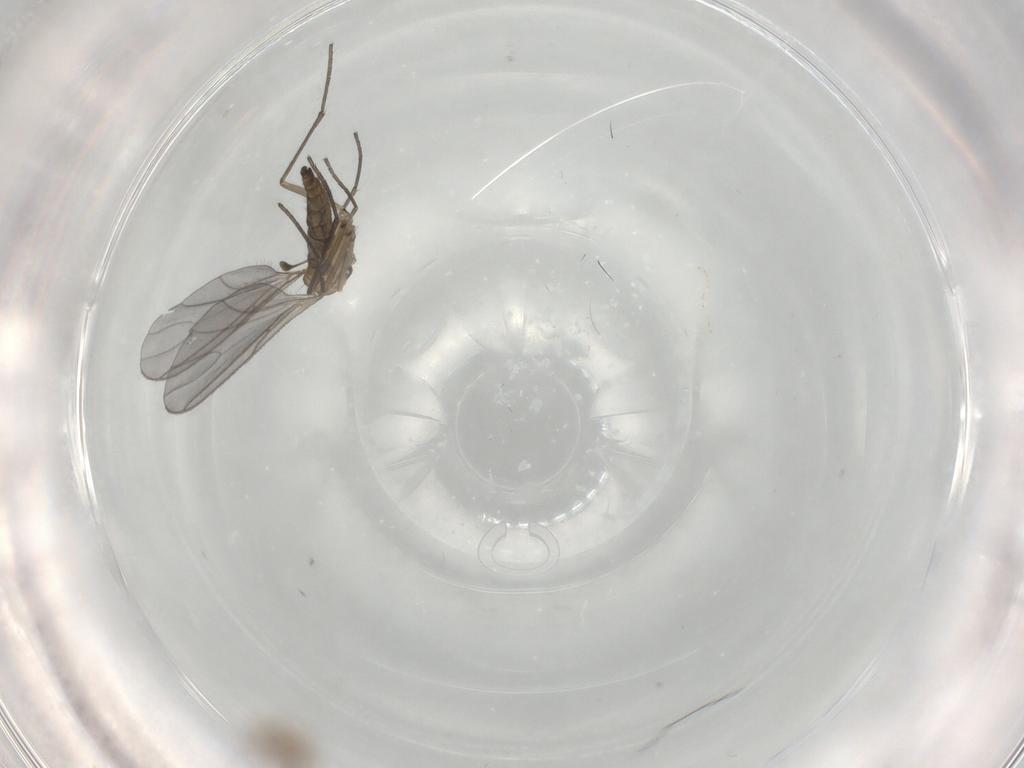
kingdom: Animalia
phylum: Arthropoda
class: Insecta
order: Diptera
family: Sciaridae
